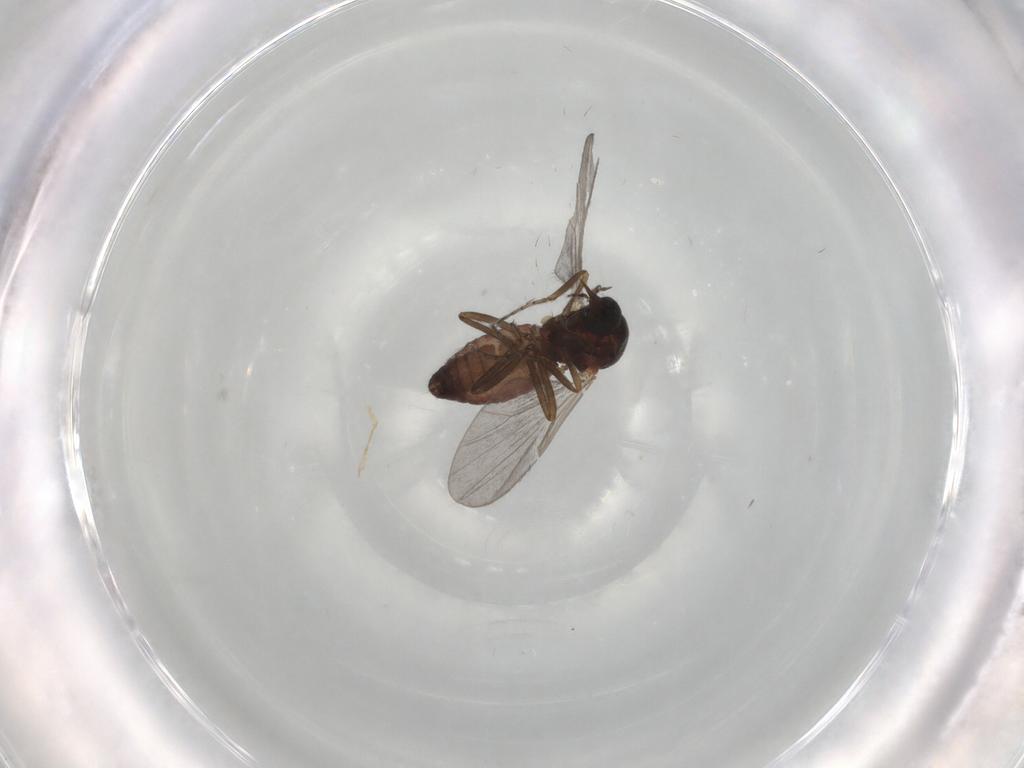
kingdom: Animalia
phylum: Arthropoda
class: Insecta
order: Diptera
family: Ceratopogonidae
